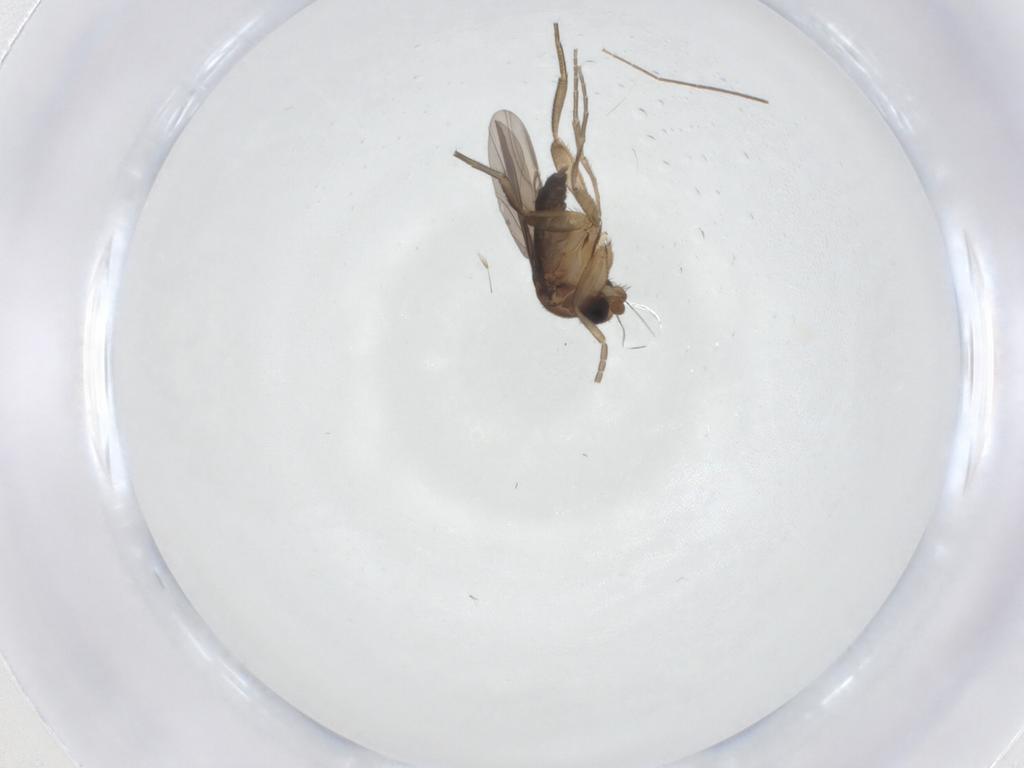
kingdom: Animalia
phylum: Arthropoda
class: Insecta
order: Diptera
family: Phoridae
